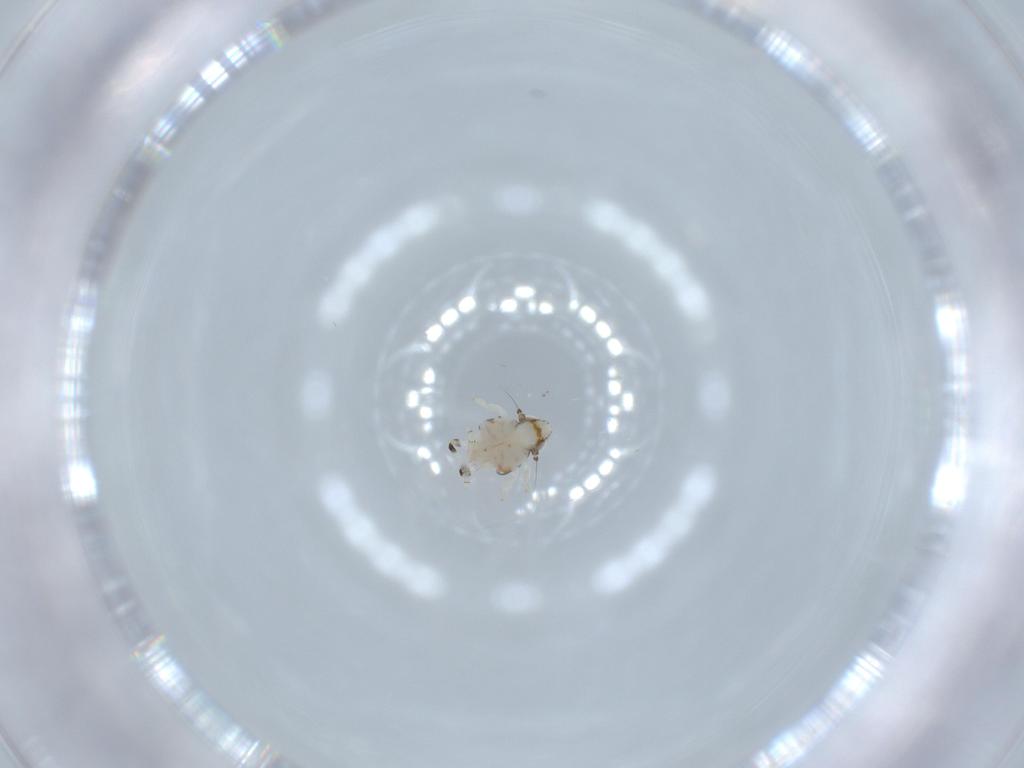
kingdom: Animalia
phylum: Arthropoda
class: Insecta
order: Hemiptera
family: Nogodinidae
